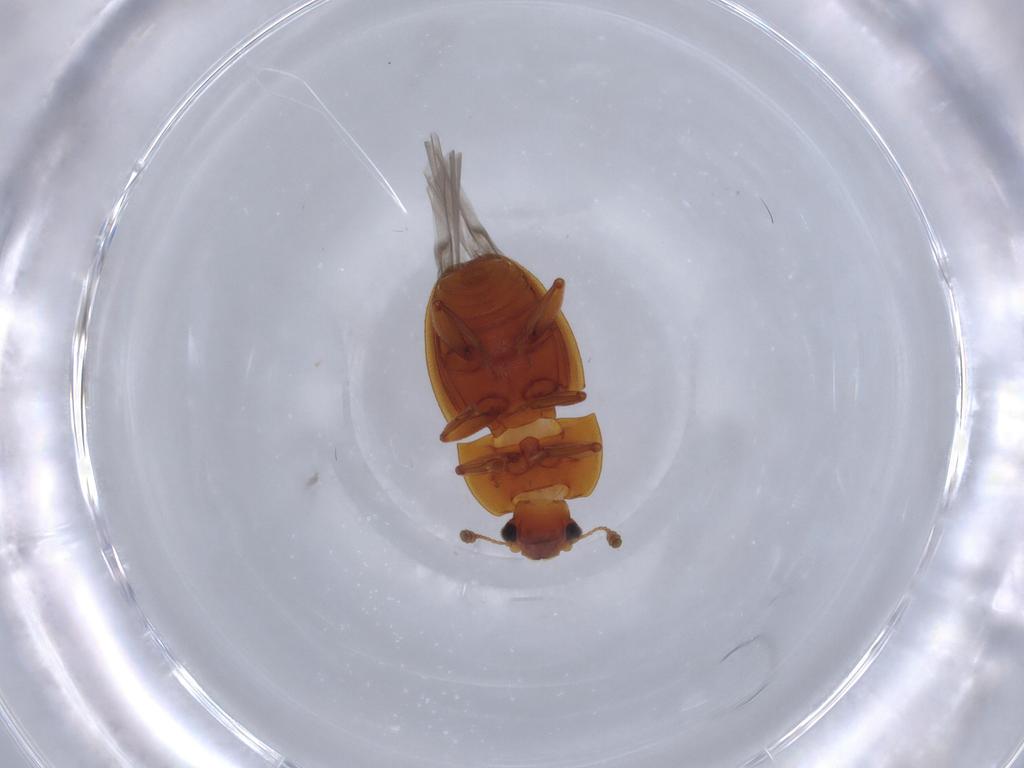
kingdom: Animalia
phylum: Arthropoda
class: Insecta
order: Coleoptera
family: Nitidulidae
